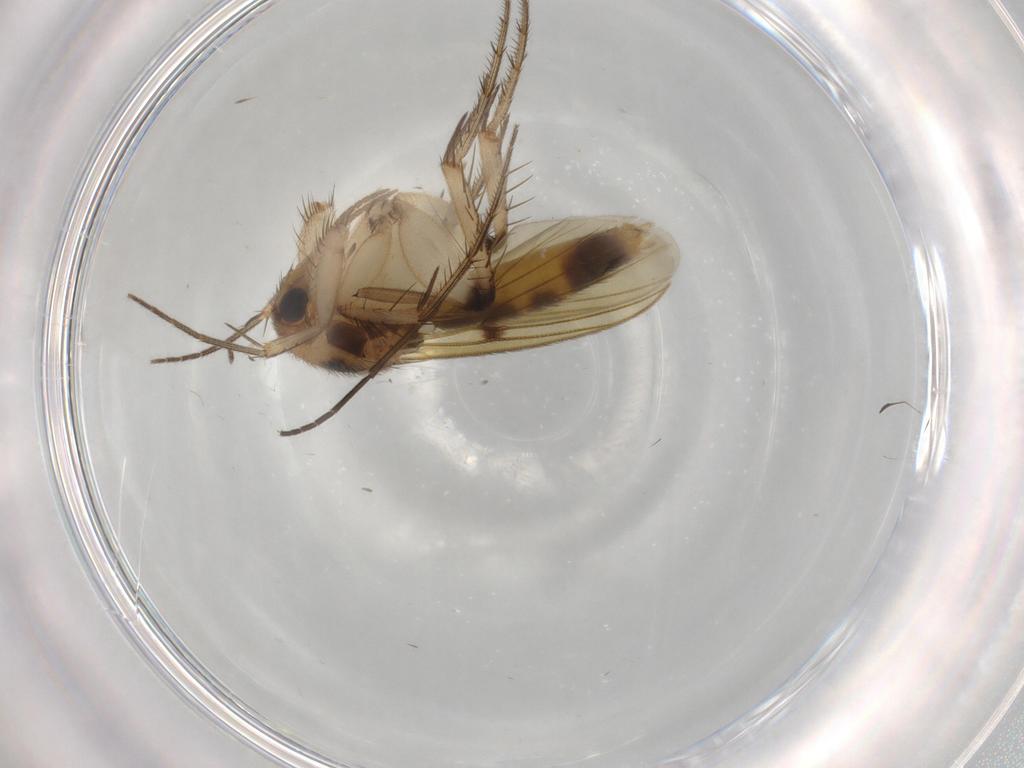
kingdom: Animalia
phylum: Arthropoda
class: Insecta
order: Diptera
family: Mycetophilidae
